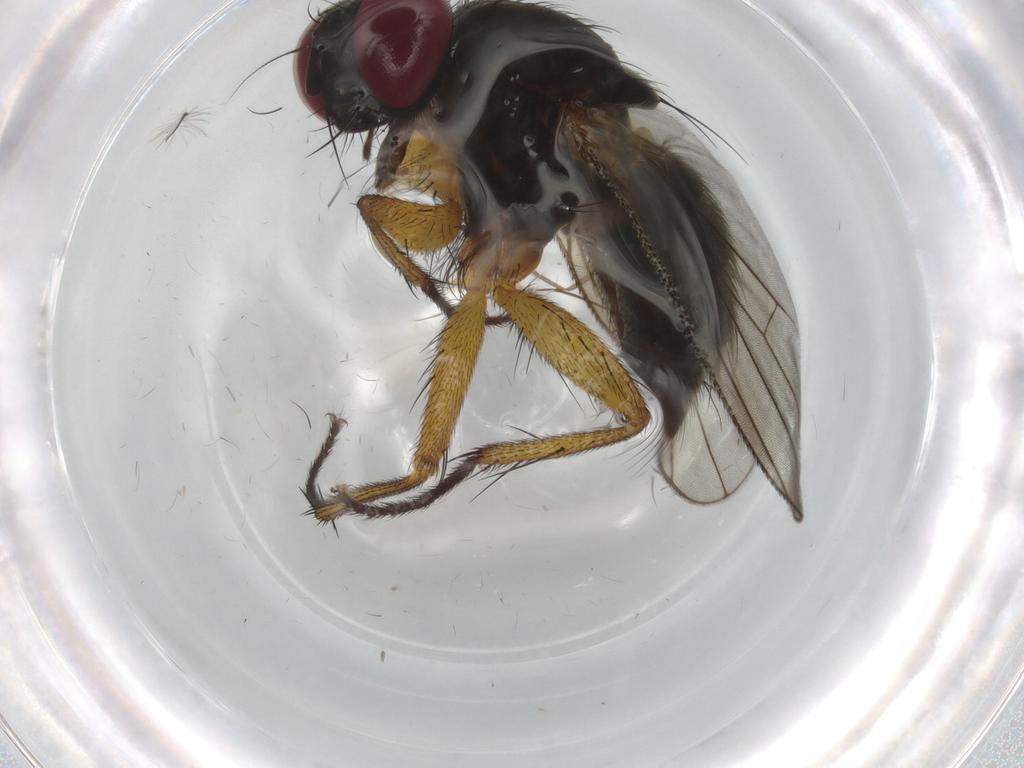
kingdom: Animalia
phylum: Arthropoda
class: Insecta
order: Diptera
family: Muscidae
